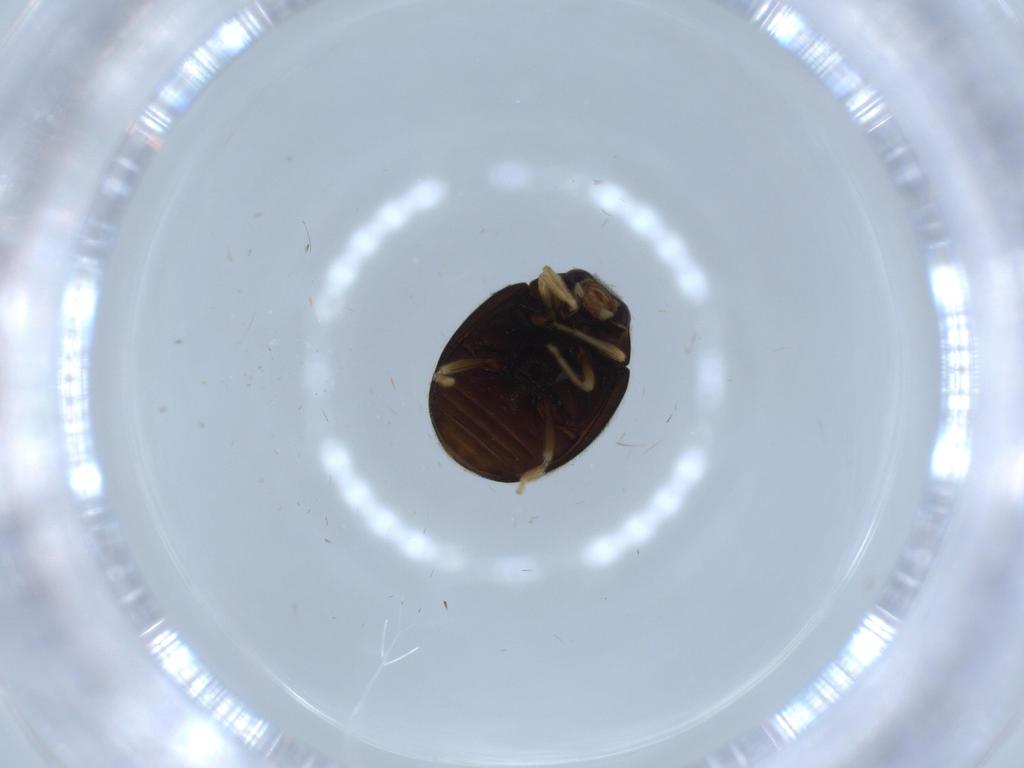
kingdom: Animalia
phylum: Arthropoda
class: Insecta
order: Coleoptera
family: Coccinellidae
